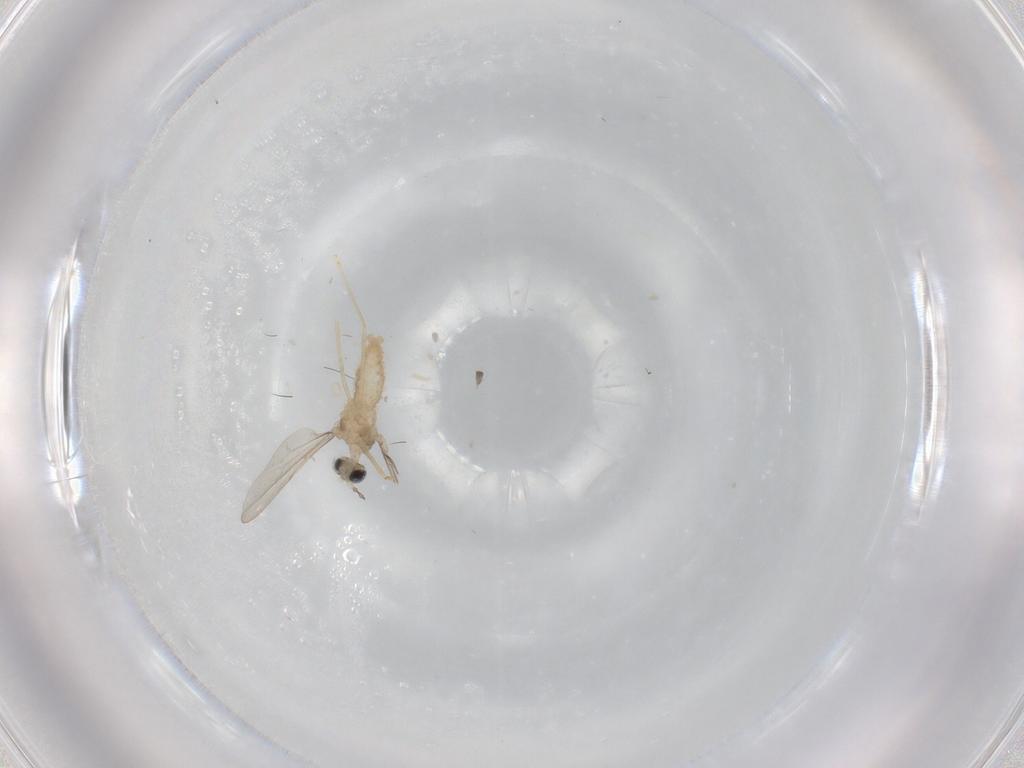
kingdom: Animalia
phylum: Arthropoda
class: Insecta
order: Diptera
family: Cecidomyiidae
